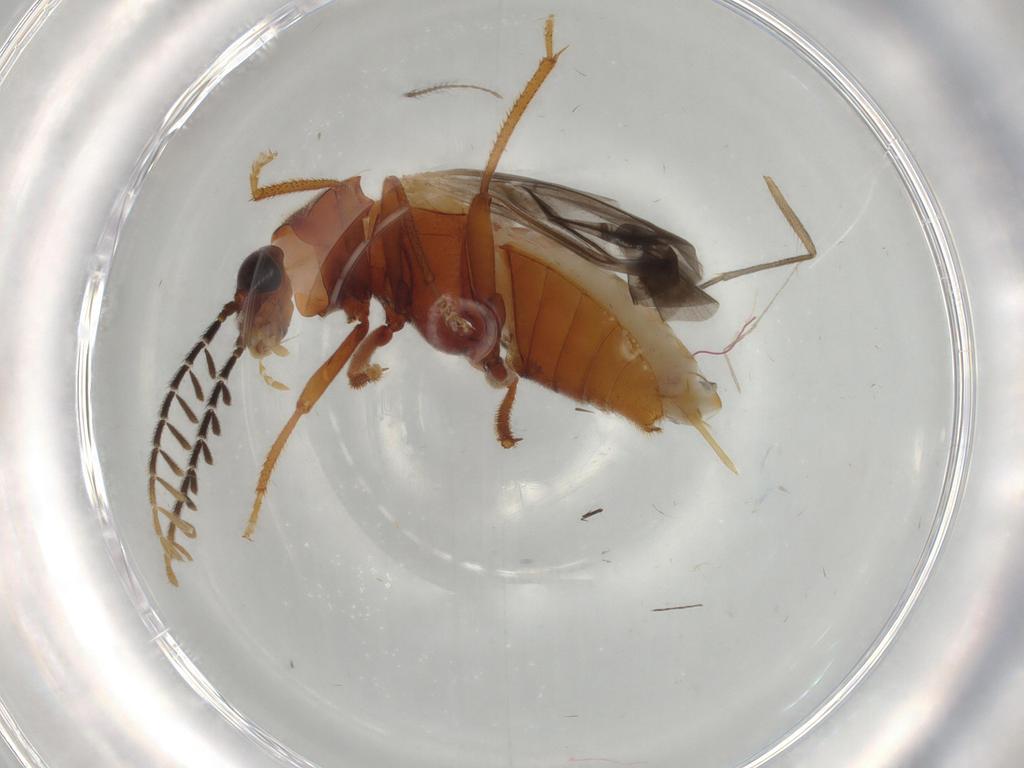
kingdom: Animalia
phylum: Arthropoda
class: Insecta
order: Coleoptera
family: Ptilodactylidae
